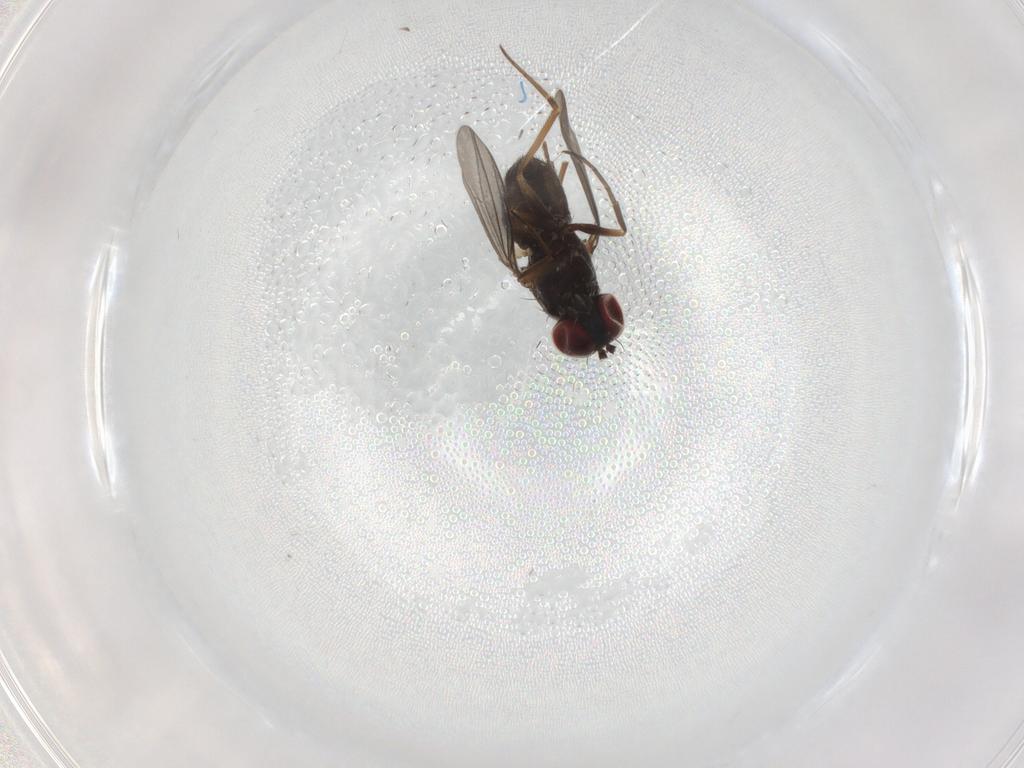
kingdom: Animalia
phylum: Arthropoda
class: Insecta
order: Diptera
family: Dolichopodidae
